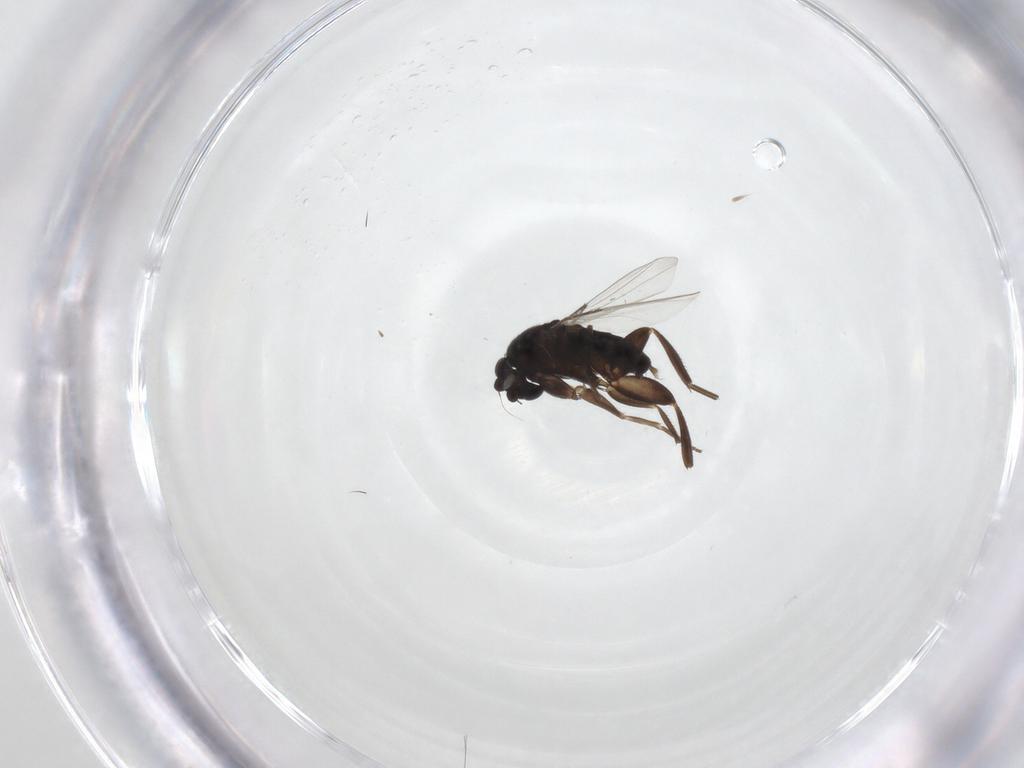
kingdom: Animalia
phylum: Arthropoda
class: Insecta
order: Diptera
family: Phoridae
